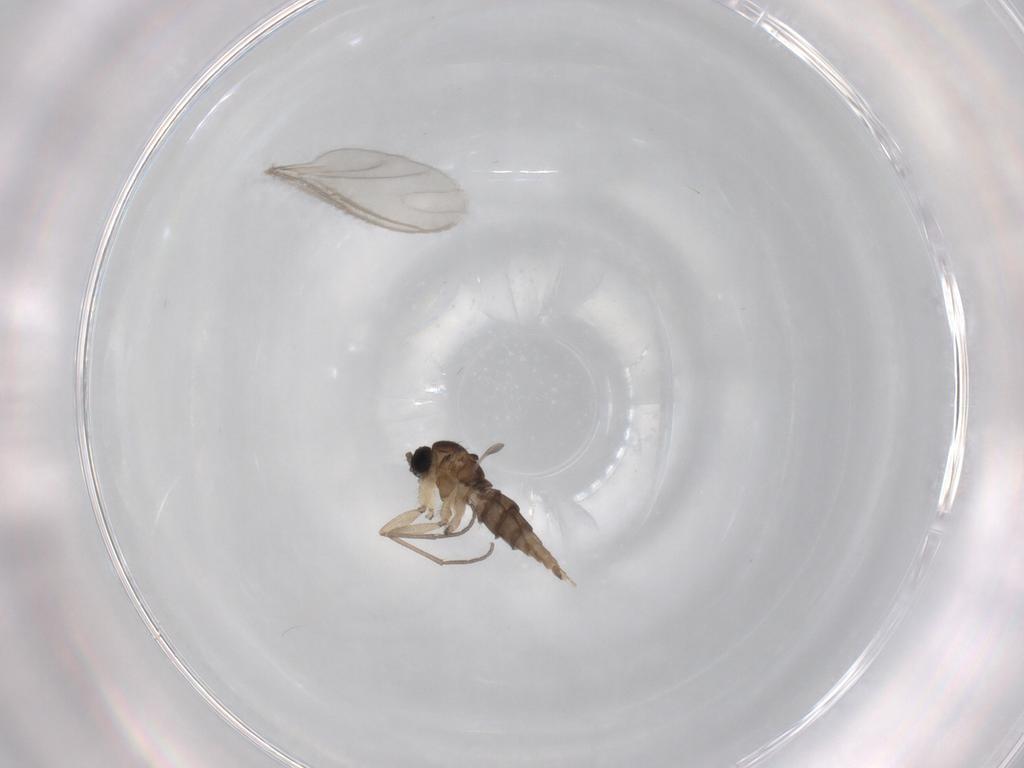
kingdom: Animalia
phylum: Arthropoda
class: Insecta
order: Diptera
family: Sciaridae
